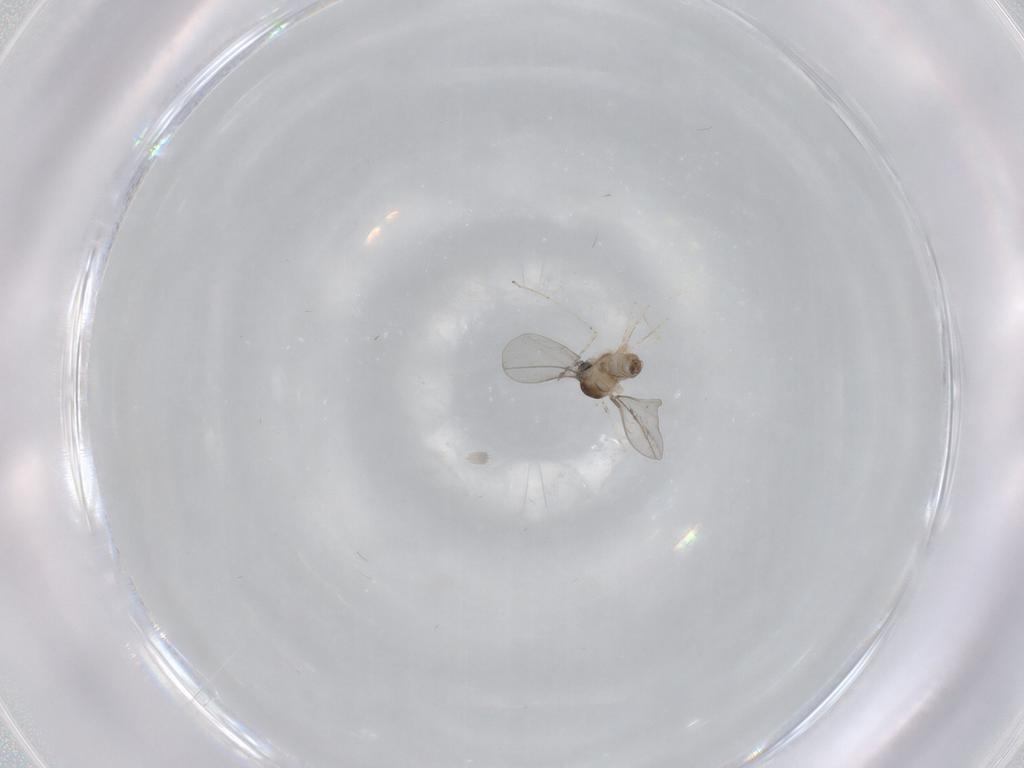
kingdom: Animalia
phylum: Arthropoda
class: Insecta
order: Diptera
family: Cecidomyiidae
